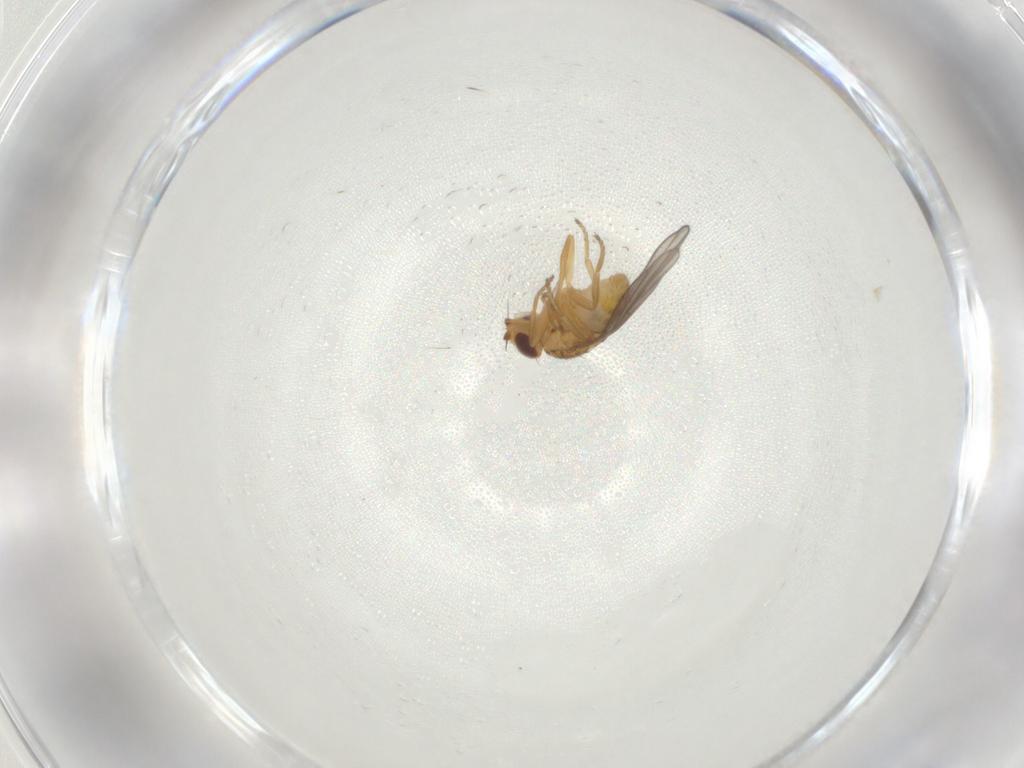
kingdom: Animalia
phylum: Arthropoda
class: Insecta
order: Diptera
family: Chloropidae
